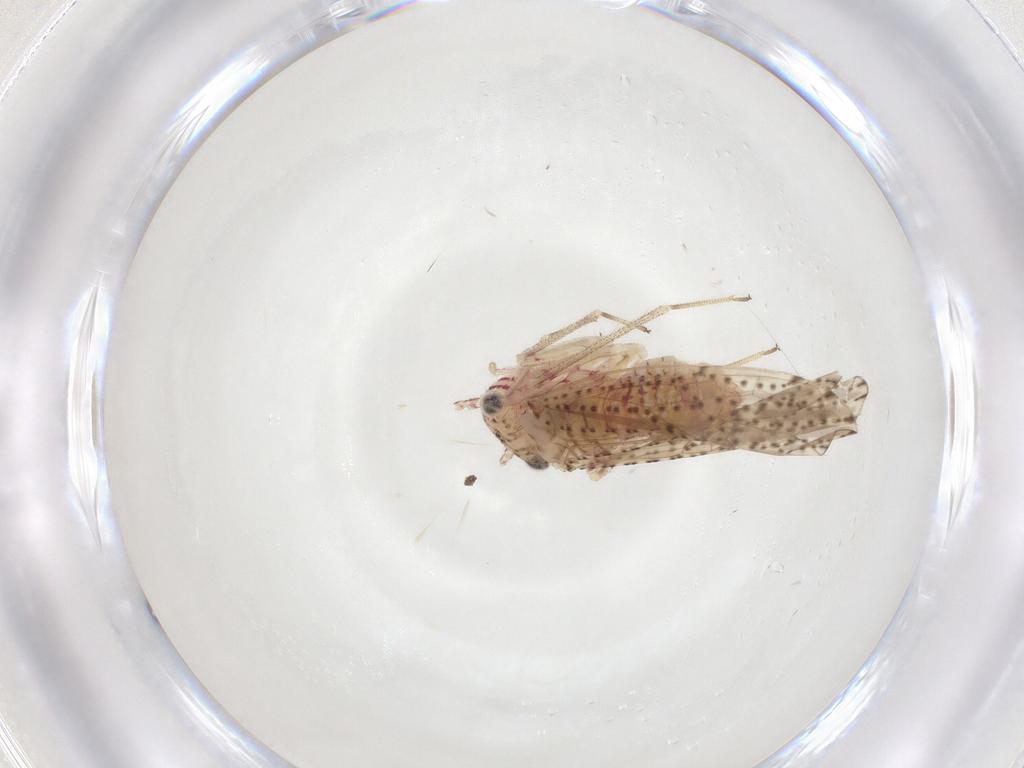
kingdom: Animalia
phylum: Arthropoda
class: Insecta
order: Psocodea
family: Philotarsidae
